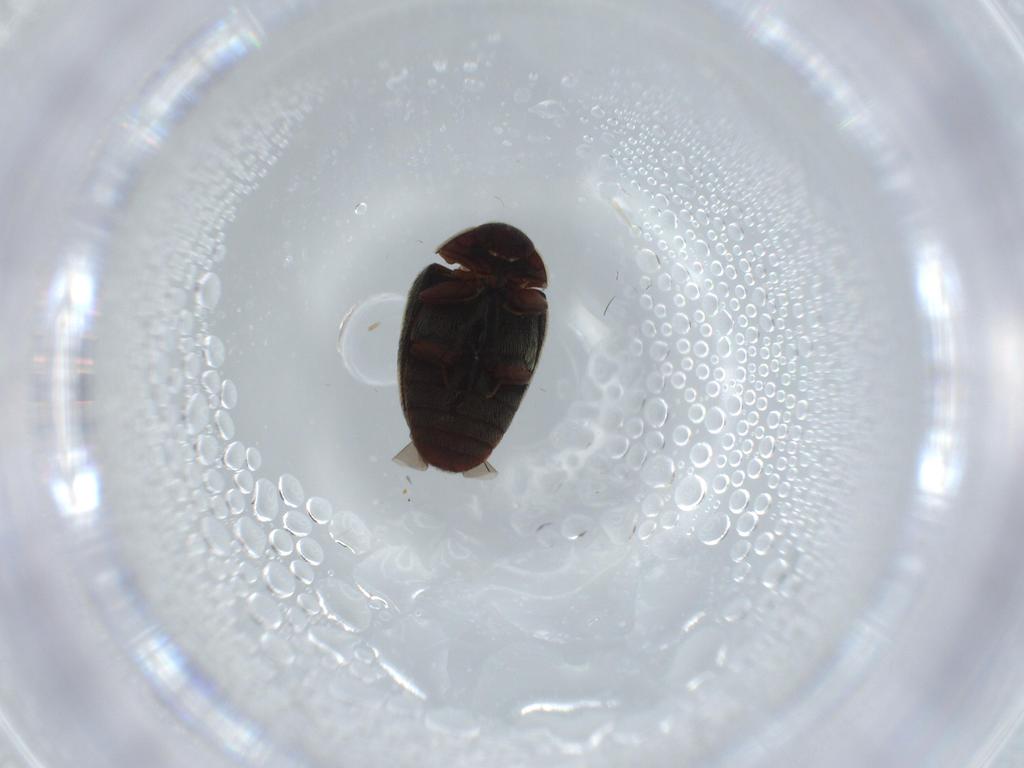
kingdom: Animalia
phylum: Arthropoda
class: Insecta
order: Coleoptera
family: Dermestidae
